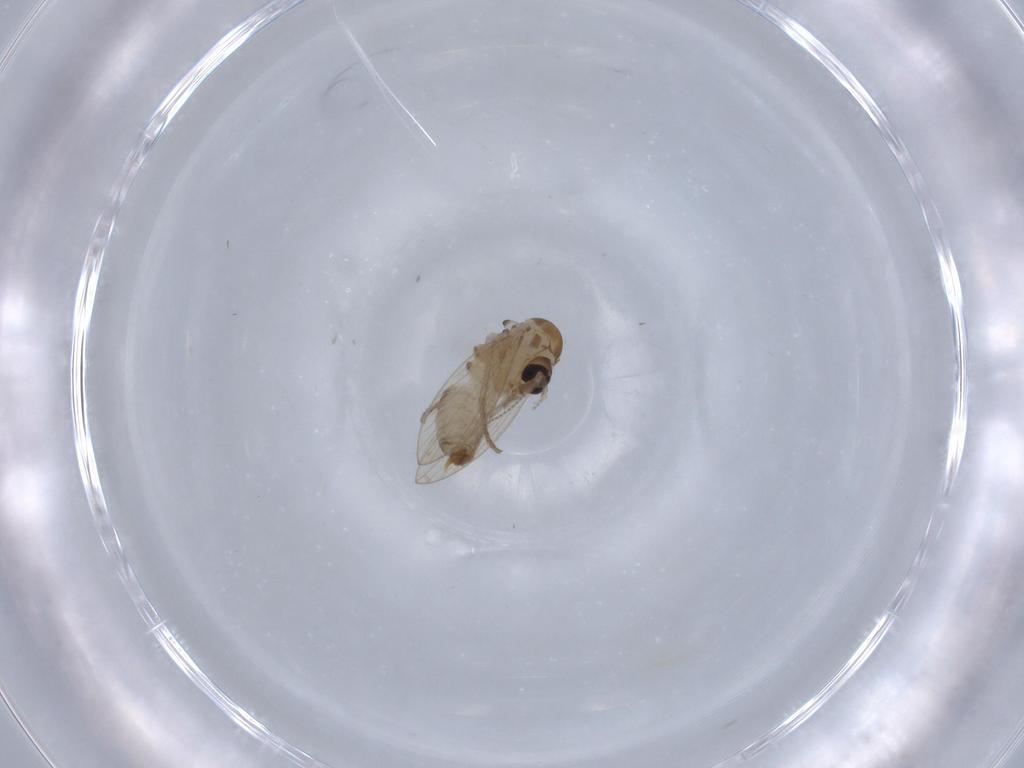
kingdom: Animalia
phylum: Arthropoda
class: Insecta
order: Diptera
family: Psychodidae
